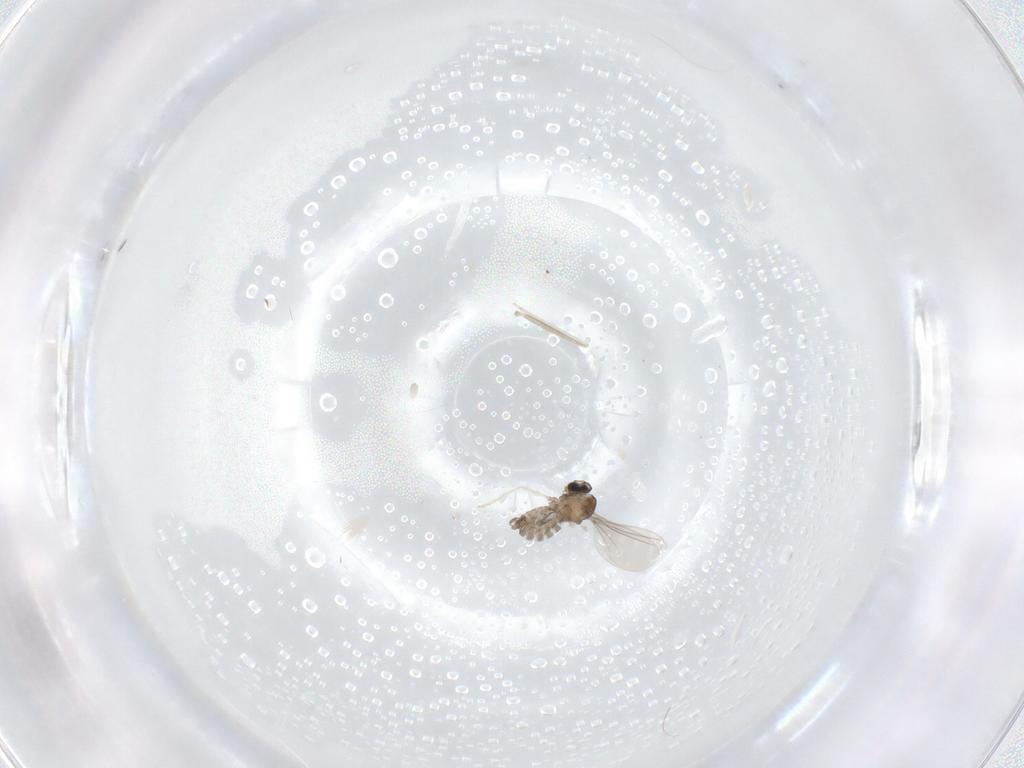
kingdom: Animalia
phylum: Arthropoda
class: Insecta
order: Diptera
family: Cecidomyiidae
